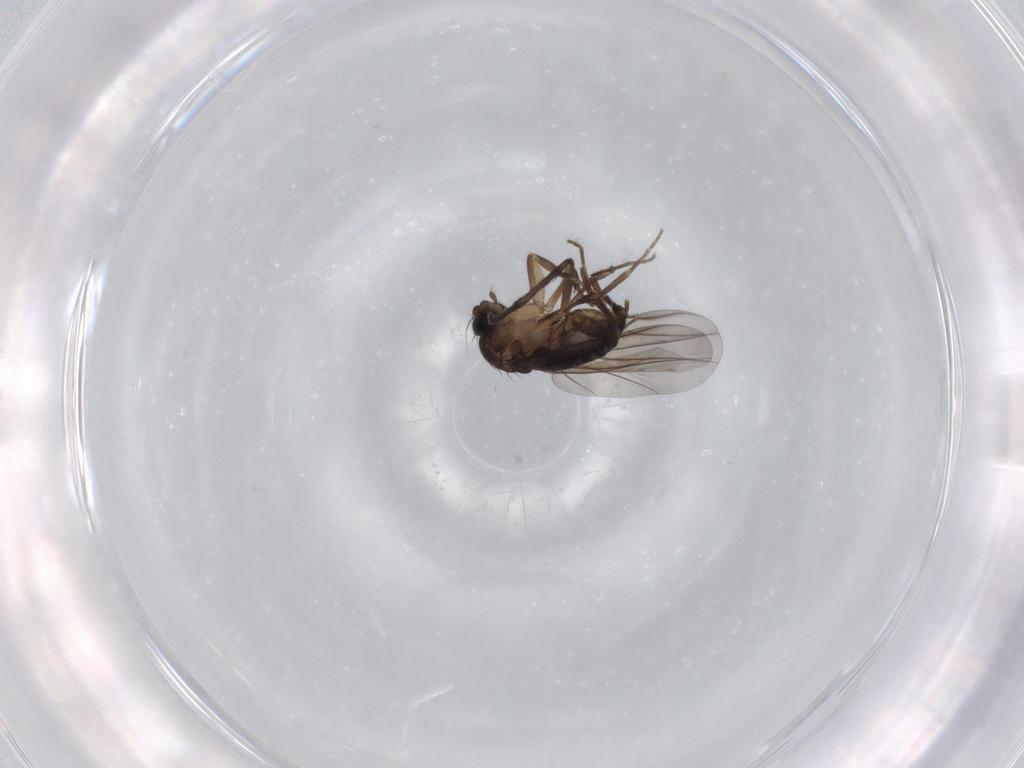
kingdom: Animalia
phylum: Arthropoda
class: Insecta
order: Diptera
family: Phoridae
